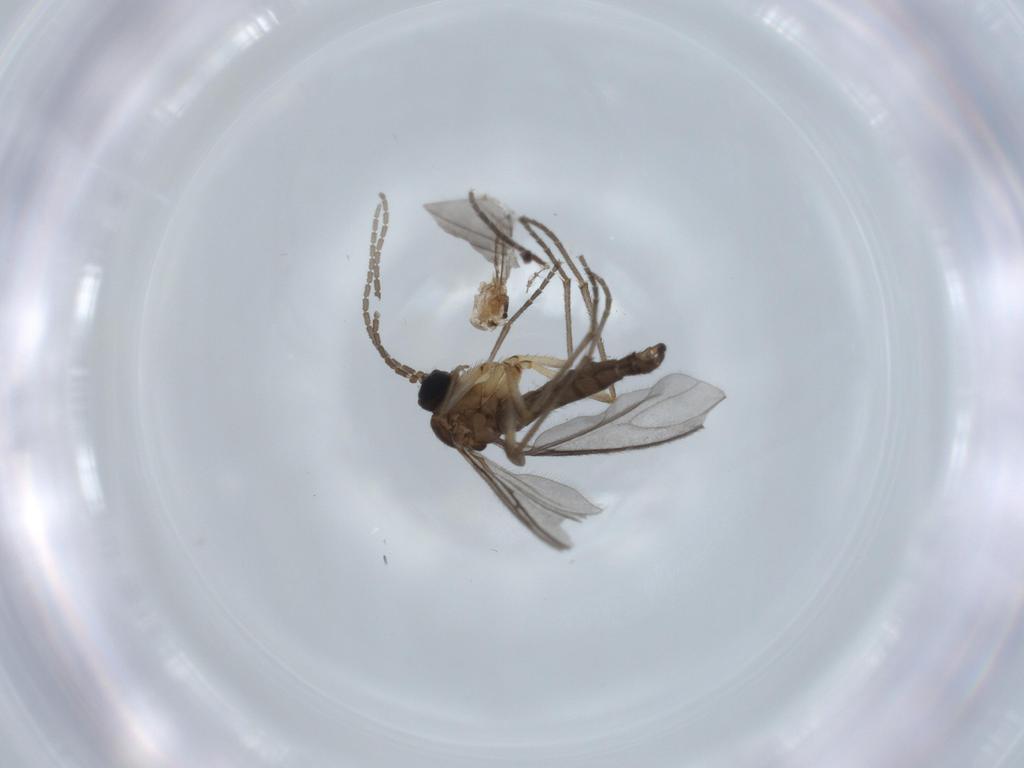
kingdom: Animalia
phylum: Arthropoda
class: Insecta
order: Diptera
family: Sciaridae
